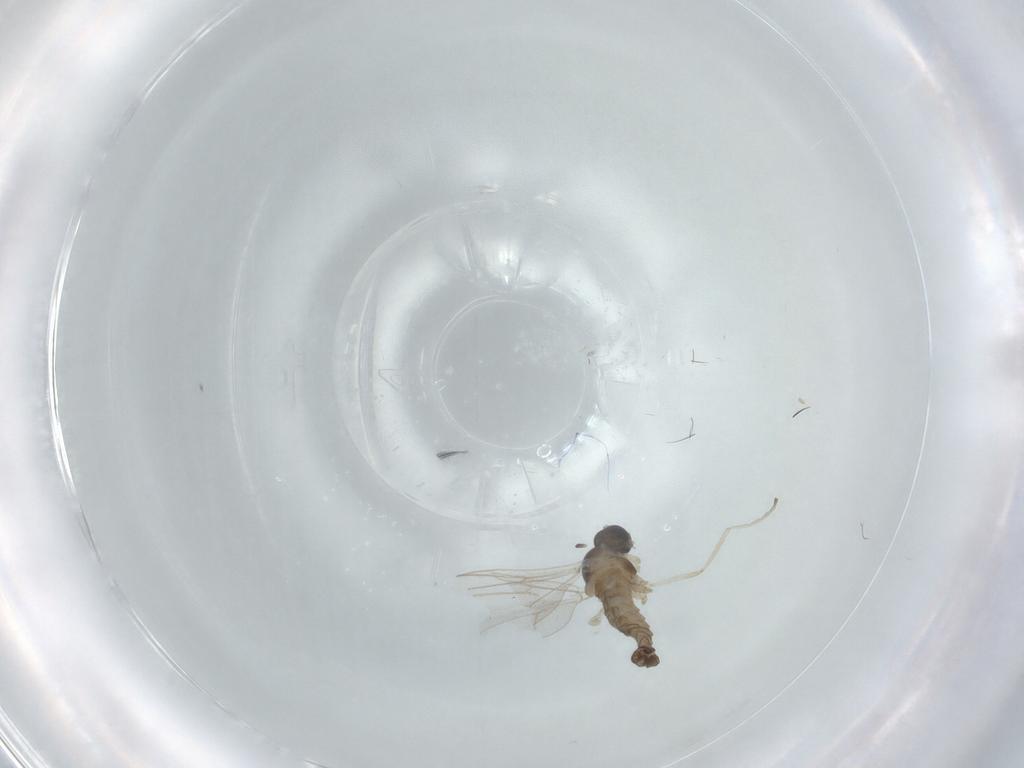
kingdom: Animalia
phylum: Arthropoda
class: Insecta
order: Diptera
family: Cecidomyiidae
